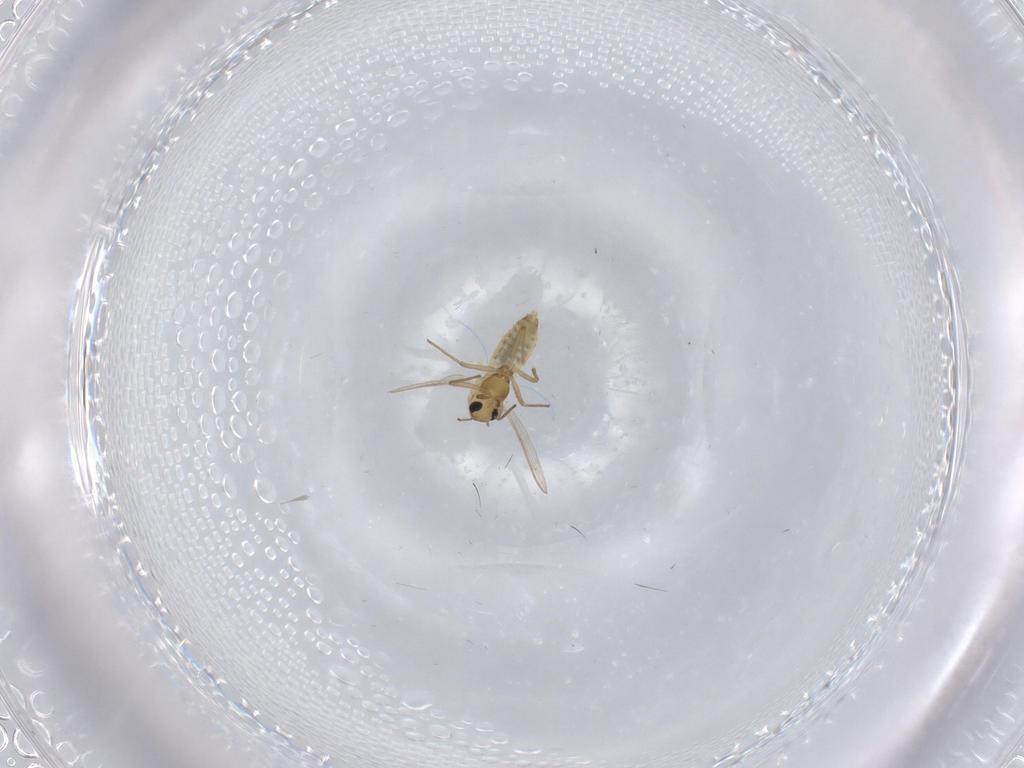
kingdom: Animalia
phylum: Arthropoda
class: Insecta
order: Diptera
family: Chironomidae
